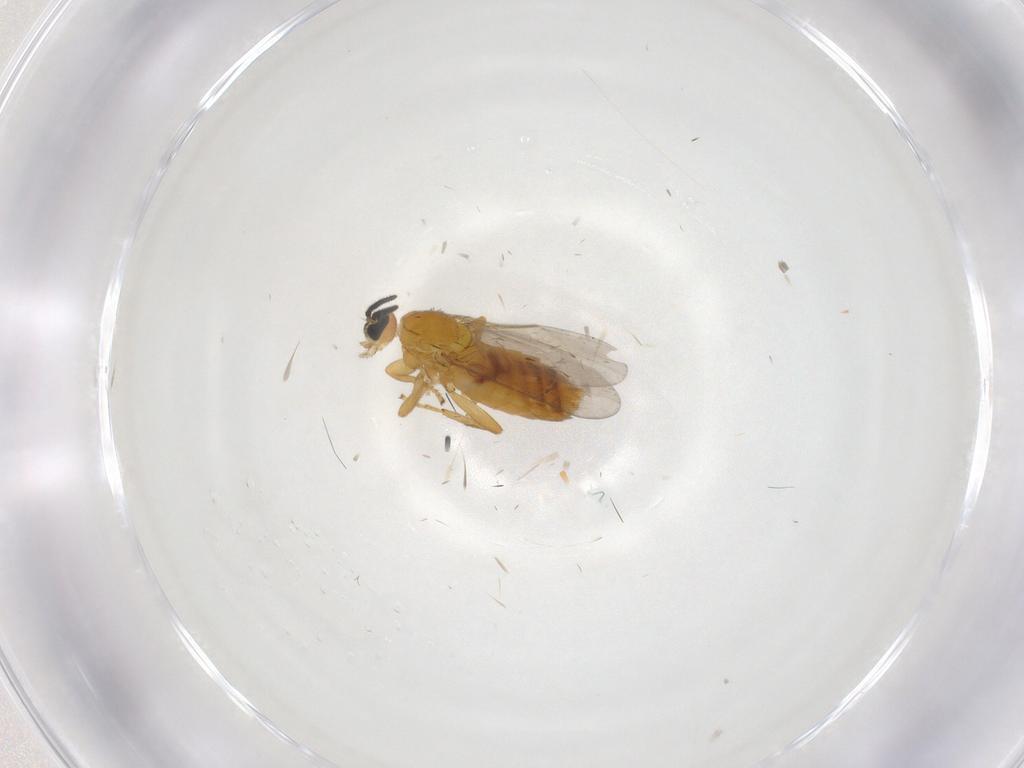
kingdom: Animalia
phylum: Arthropoda
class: Insecta
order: Diptera
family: Scatopsidae
